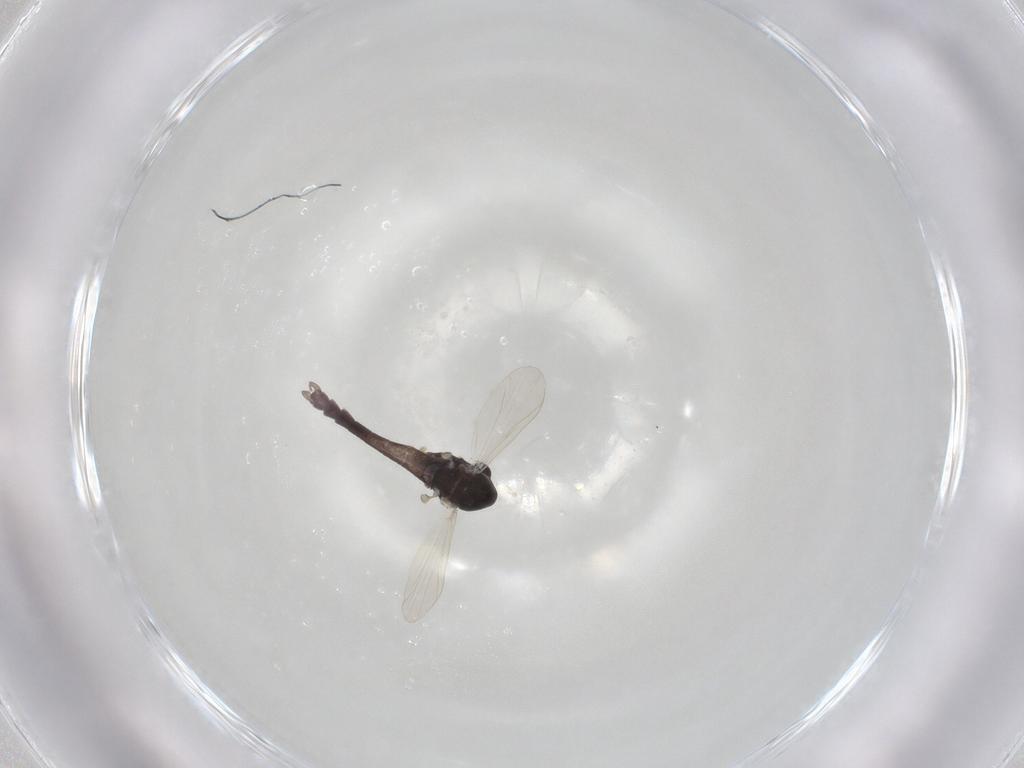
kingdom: Animalia
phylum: Arthropoda
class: Insecta
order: Diptera
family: Chironomidae
